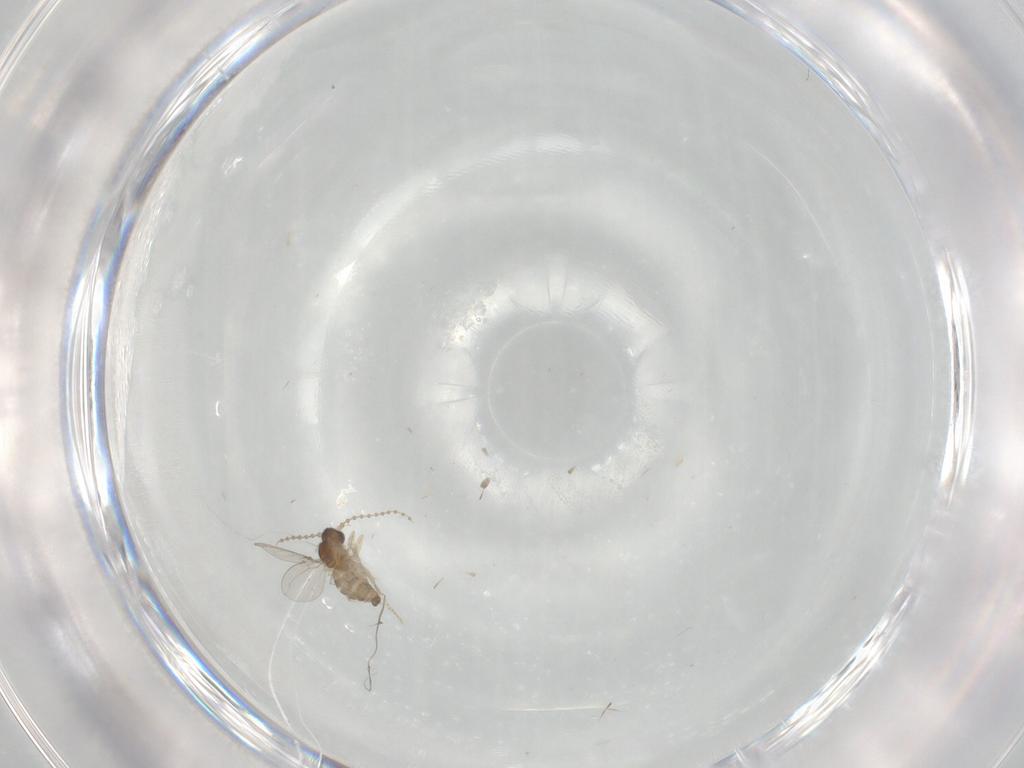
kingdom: Animalia
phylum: Arthropoda
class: Insecta
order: Diptera
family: Cecidomyiidae
